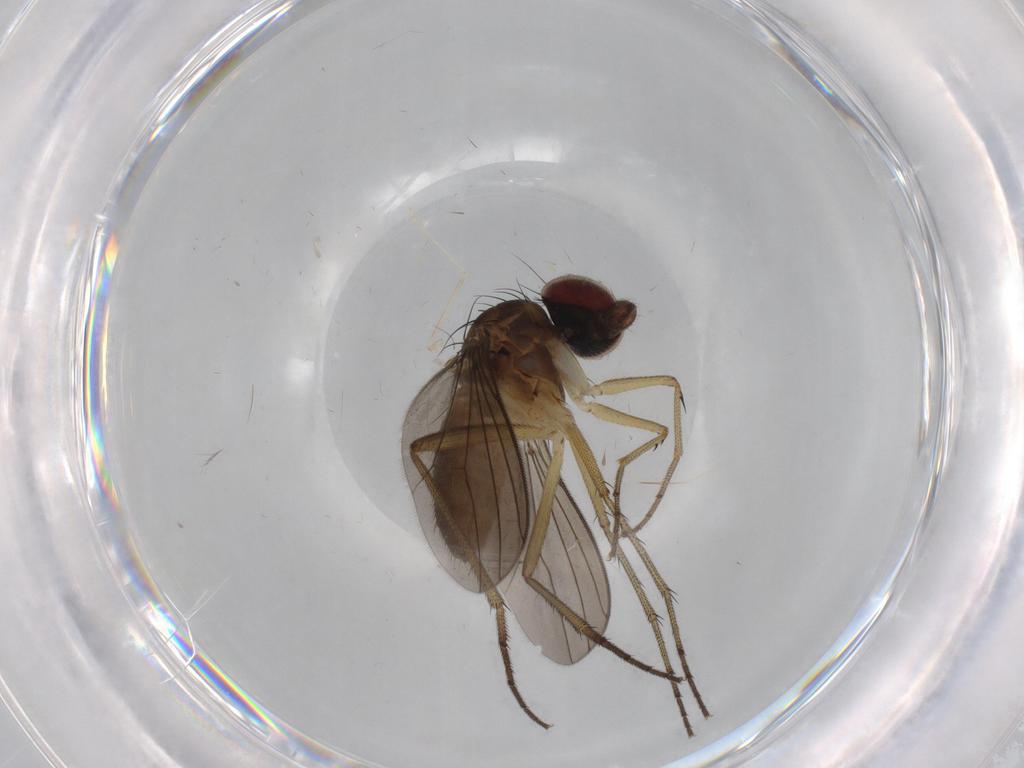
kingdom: Animalia
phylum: Arthropoda
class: Insecta
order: Diptera
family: Dolichopodidae
